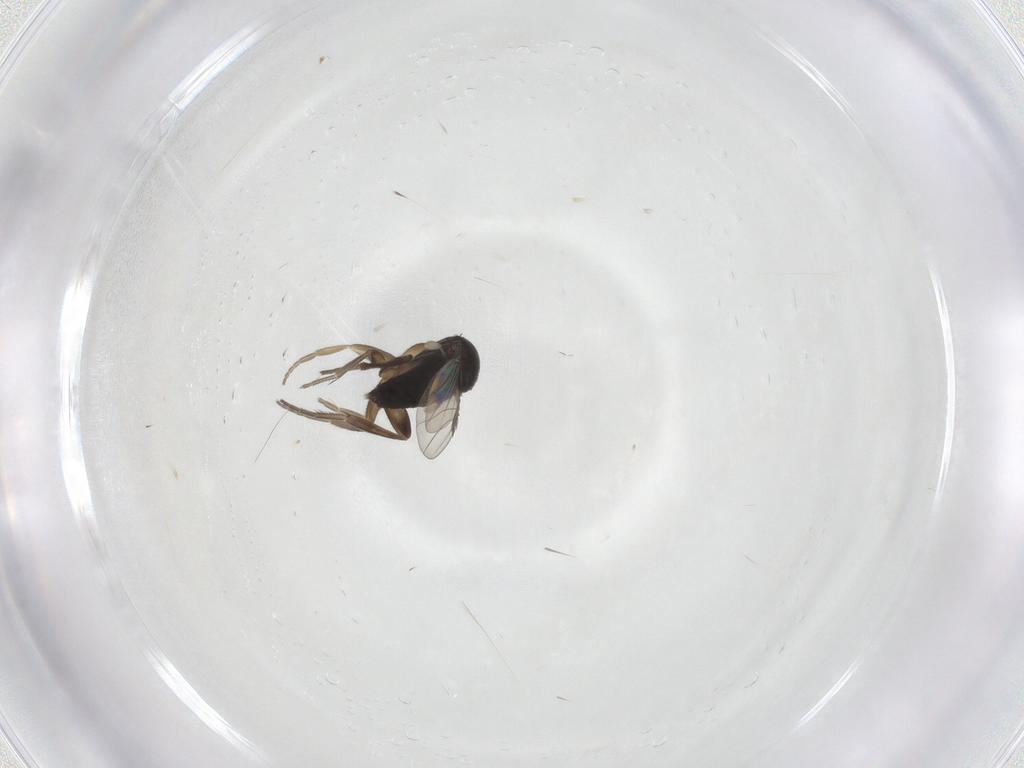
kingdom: Animalia
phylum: Arthropoda
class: Insecta
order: Diptera
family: Phoridae
